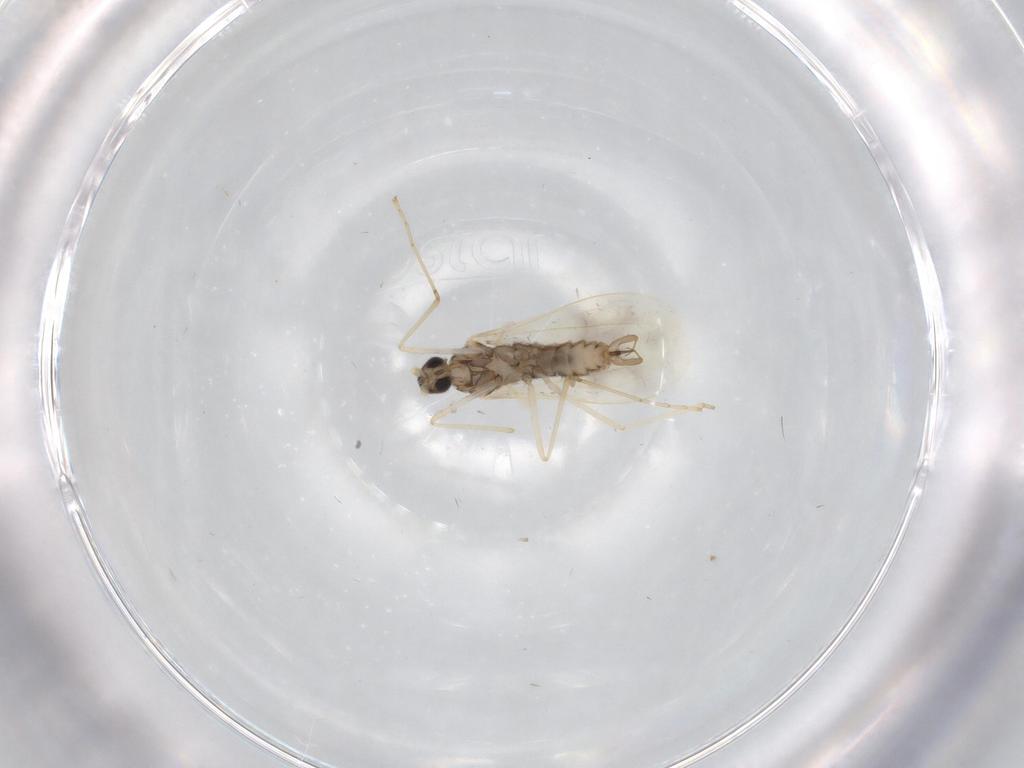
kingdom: Animalia
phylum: Arthropoda
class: Insecta
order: Diptera
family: Cecidomyiidae
